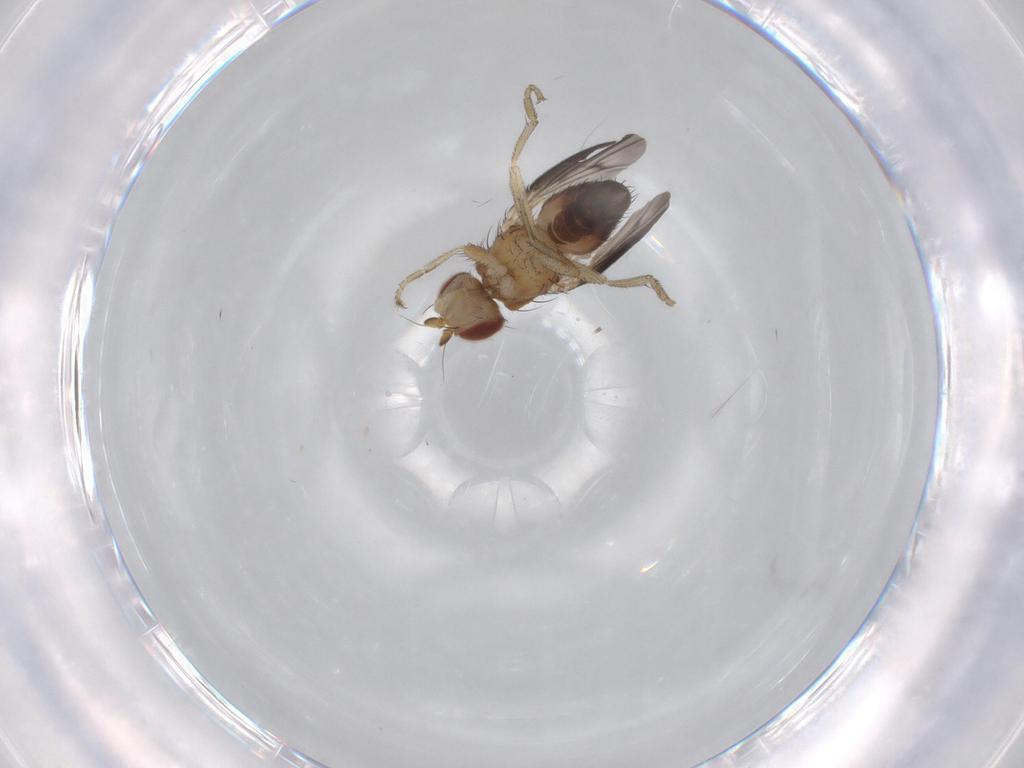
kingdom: Animalia
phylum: Arthropoda
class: Insecta
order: Diptera
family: Heleomyzidae
